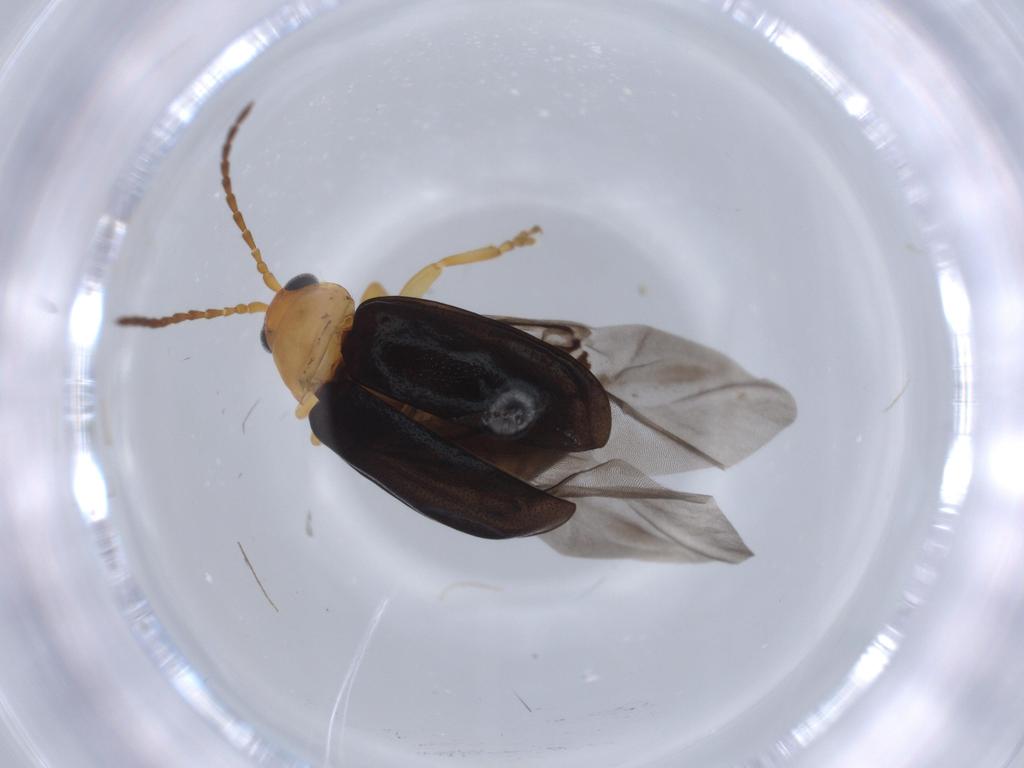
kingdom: Animalia
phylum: Arthropoda
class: Insecta
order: Coleoptera
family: Chrysomelidae
